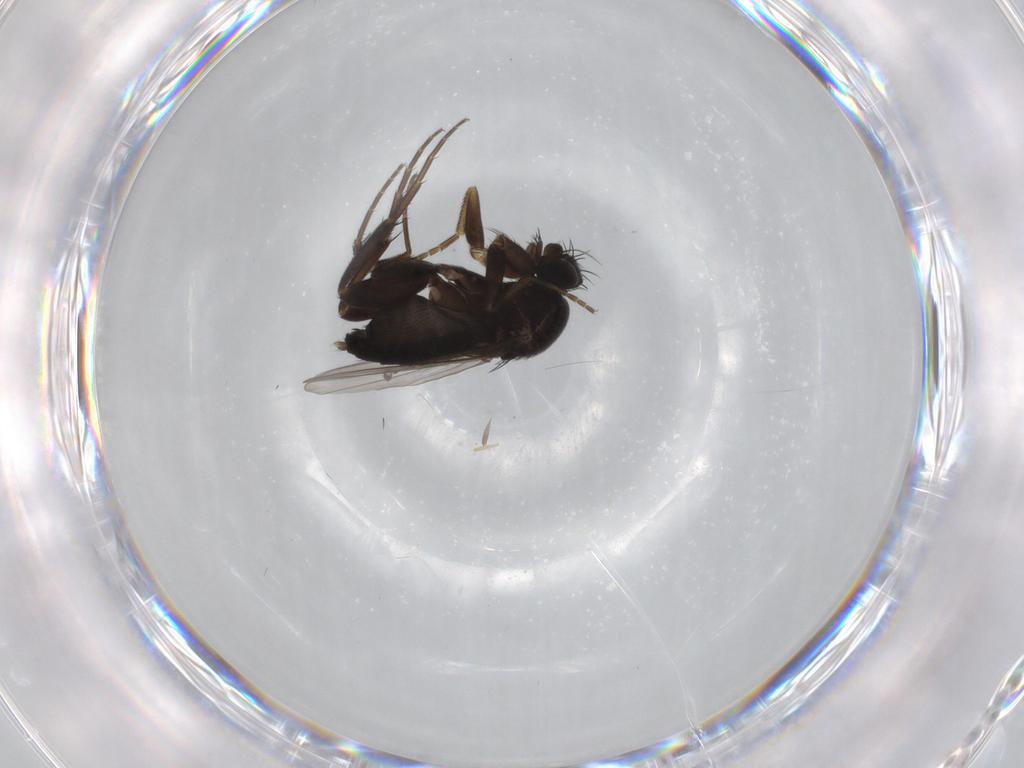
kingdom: Animalia
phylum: Arthropoda
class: Insecta
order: Diptera
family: Phoridae
